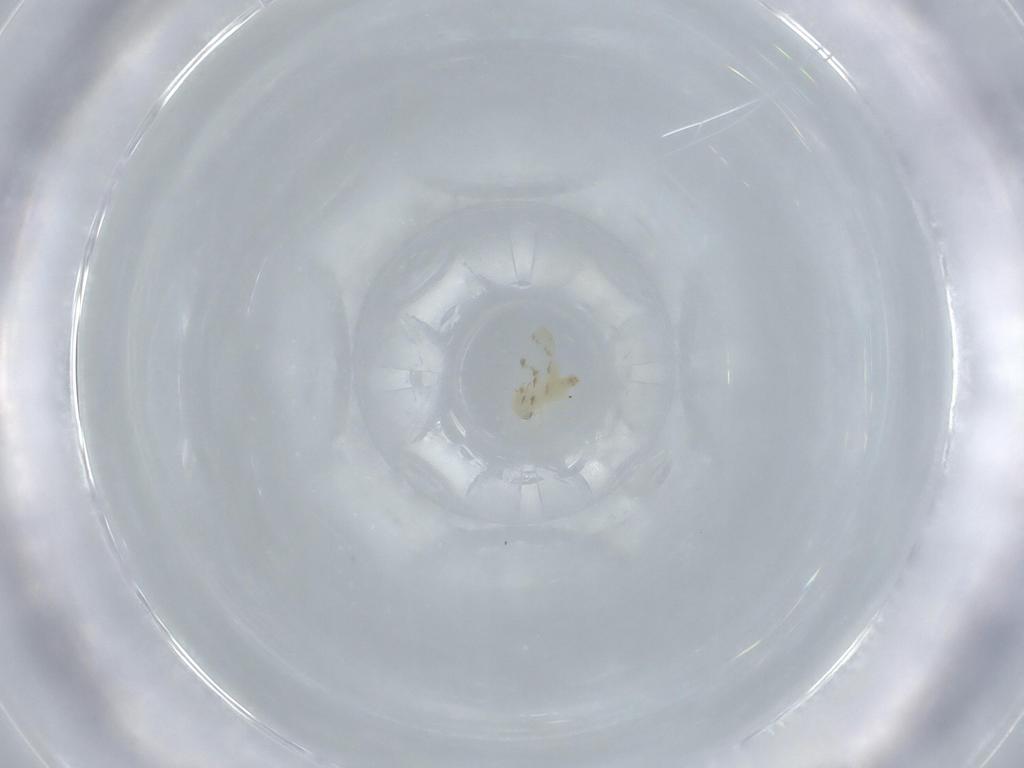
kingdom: Animalia
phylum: Arthropoda
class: Insecta
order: Hemiptera
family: Aleyrodidae
